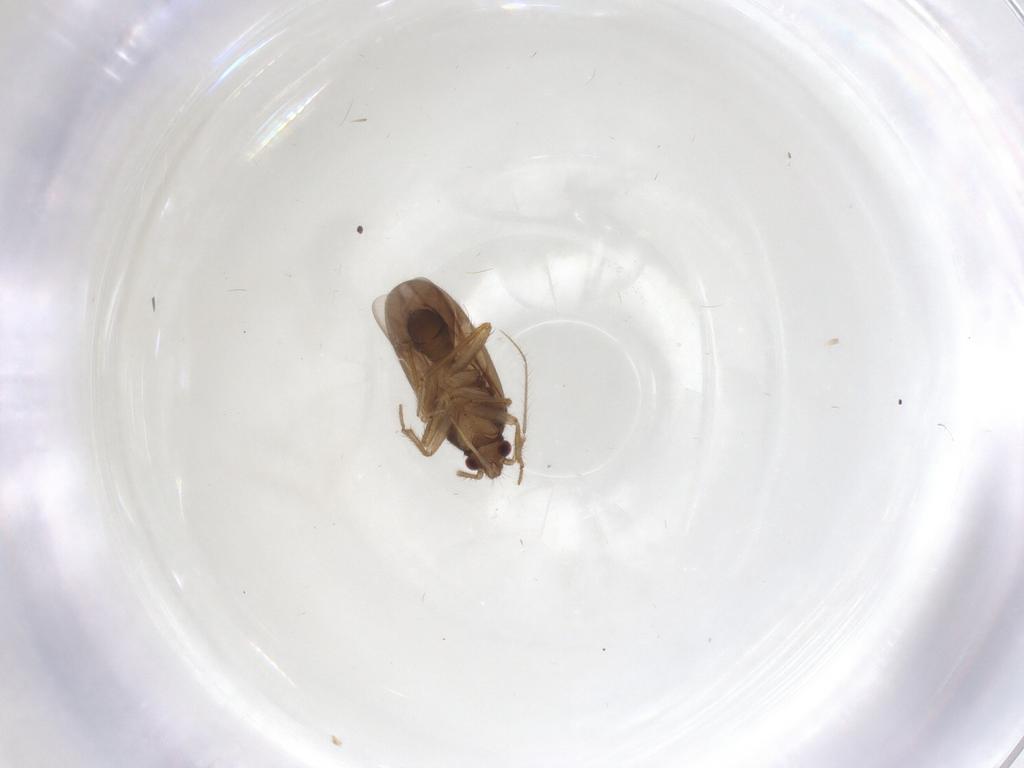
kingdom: Animalia
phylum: Arthropoda
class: Insecta
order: Hemiptera
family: Ceratocombidae
